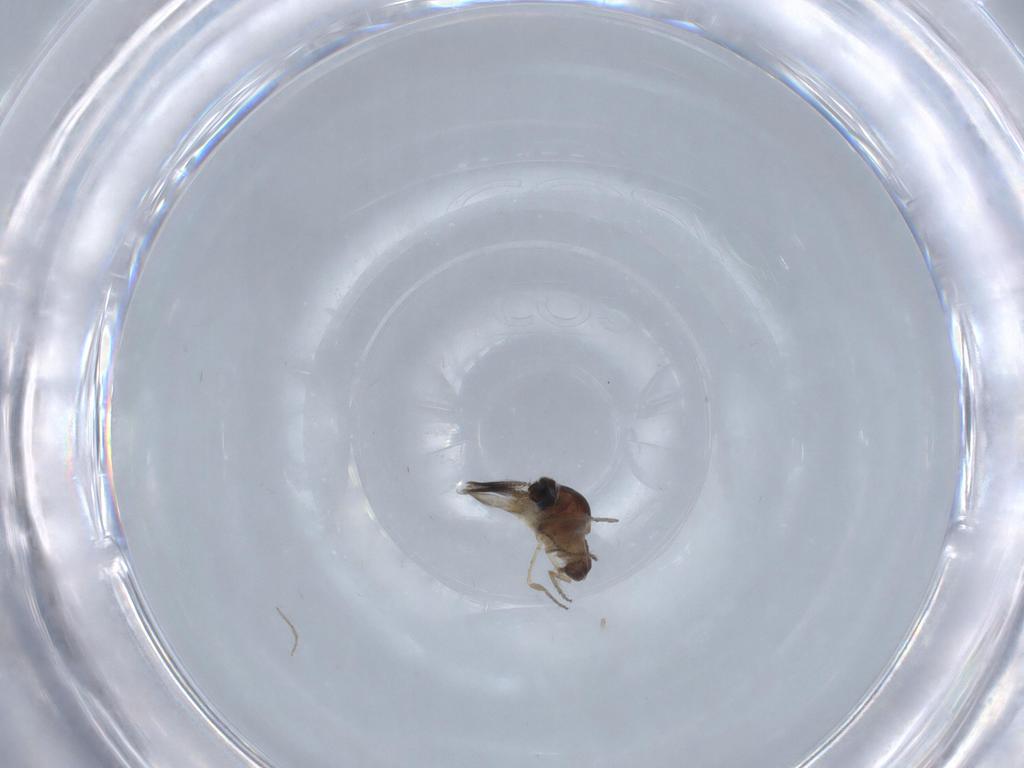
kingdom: Animalia
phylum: Arthropoda
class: Insecta
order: Diptera
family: Ceratopogonidae
